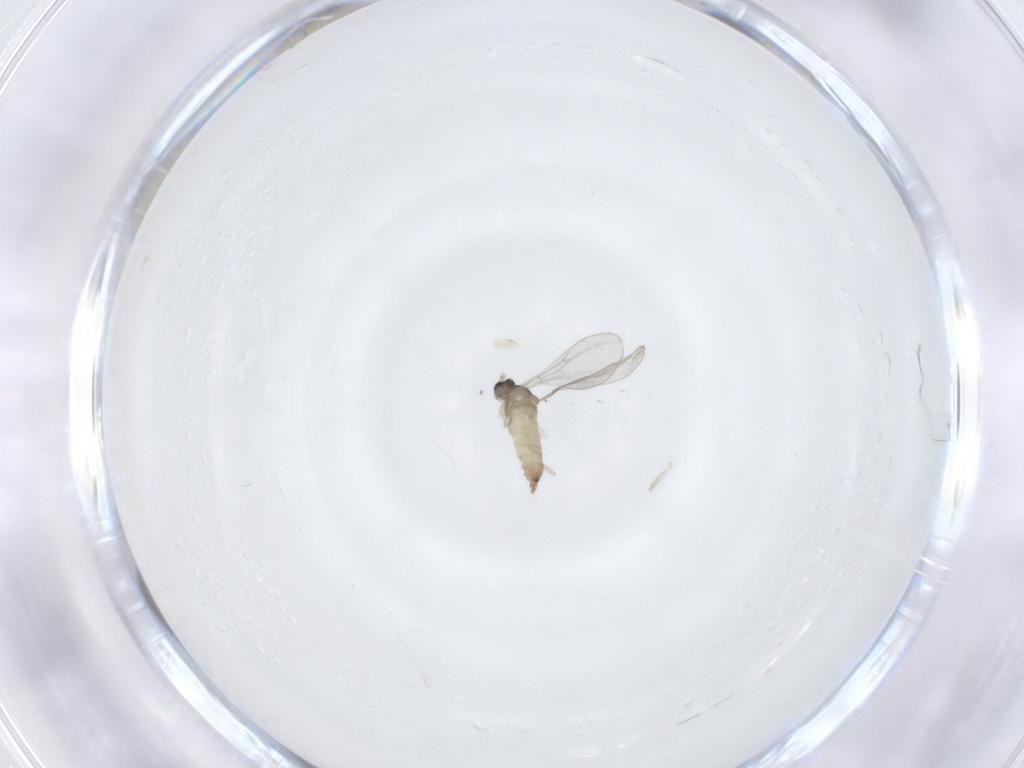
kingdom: Animalia
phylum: Arthropoda
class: Insecta
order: Diptera
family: Cecidomyiidae
